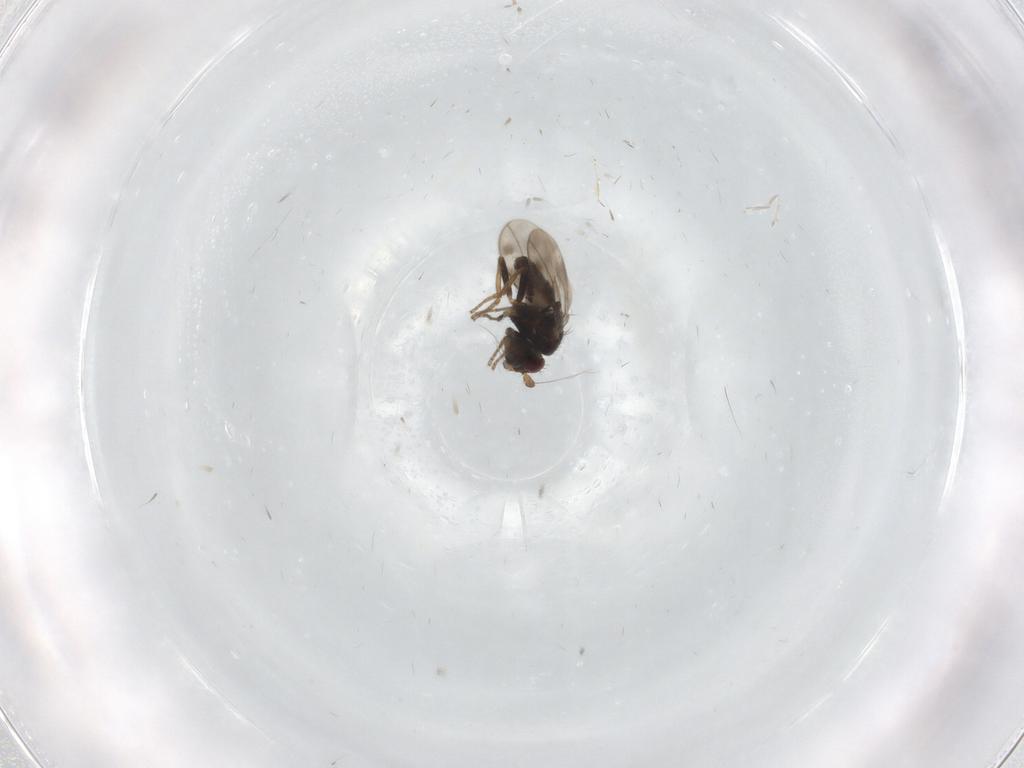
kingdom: Animalia
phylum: Arthropoda
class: Insecta
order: Diptera
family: Sphaeroceridae
